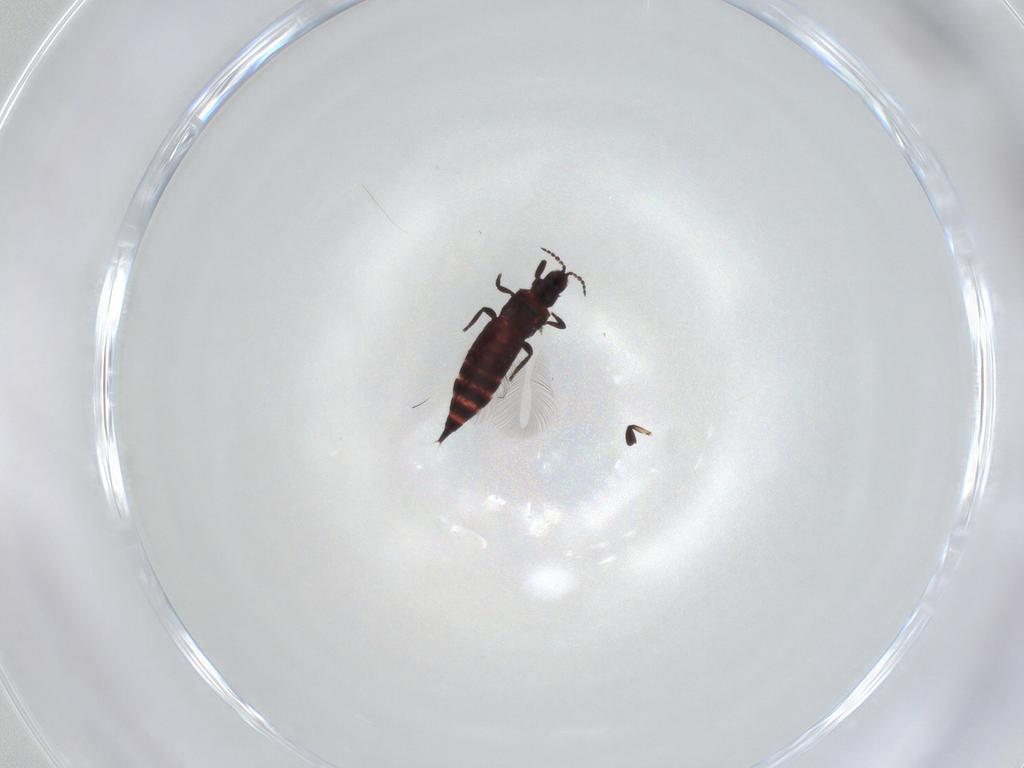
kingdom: Animalia
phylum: Arthropoda
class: Insecta
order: Thysanoptera
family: Phlaeothripidae
